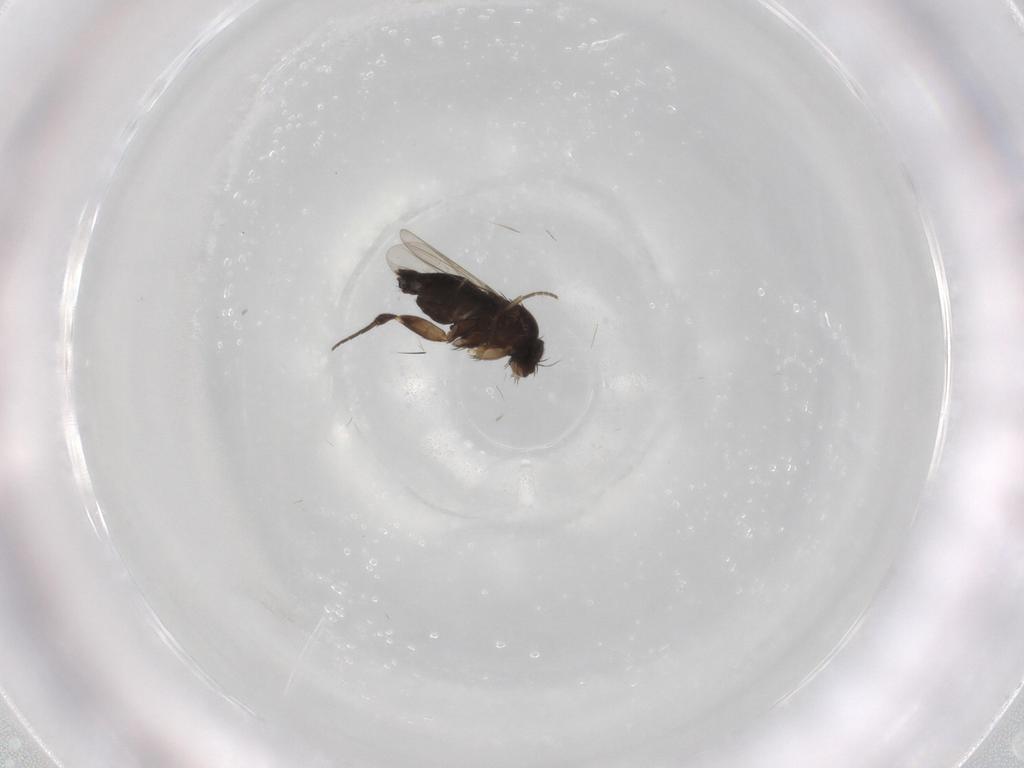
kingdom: Animalia
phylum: Arthropoda
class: Insecta
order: Diptera
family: Phoridae
